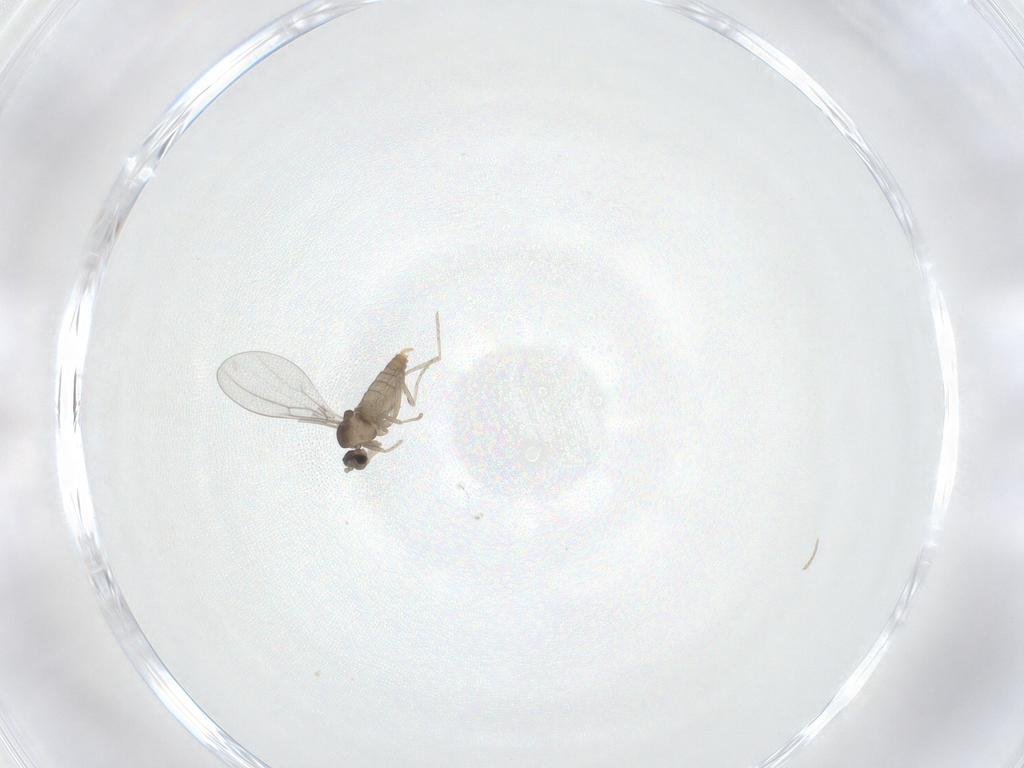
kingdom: Animalia
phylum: Arthropoda
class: Insecta
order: Diptera
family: Cecidomyiidae
